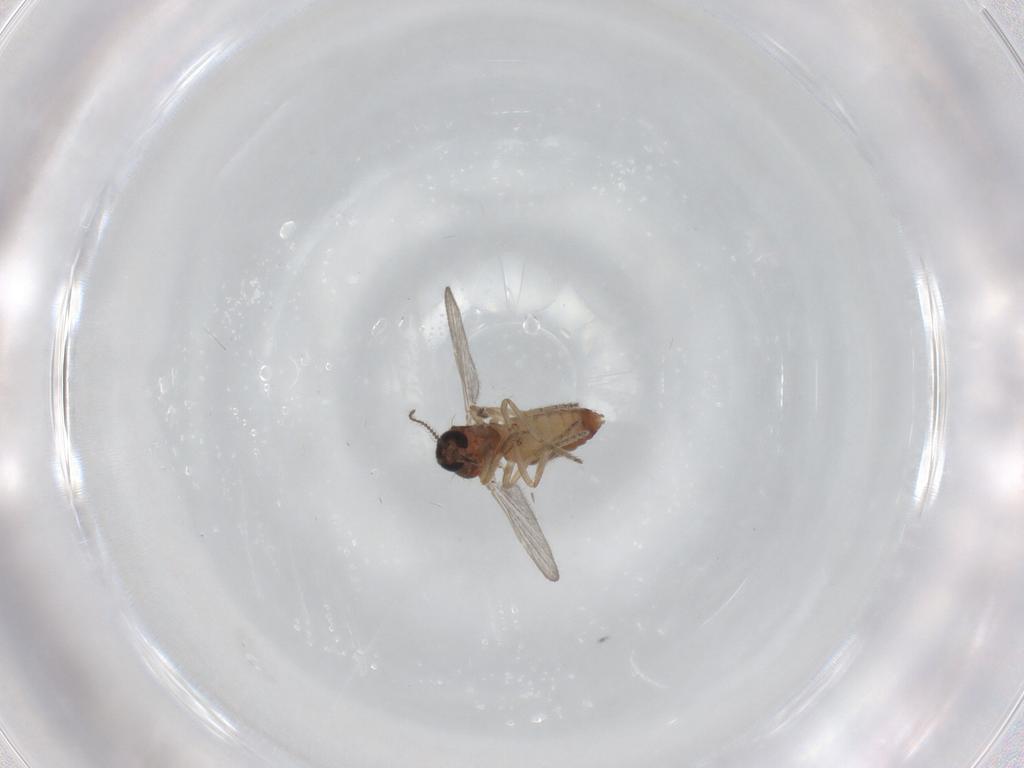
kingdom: Animalia
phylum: Arthropoda
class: Insecta
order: Diptera
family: Ceratopogonidae
